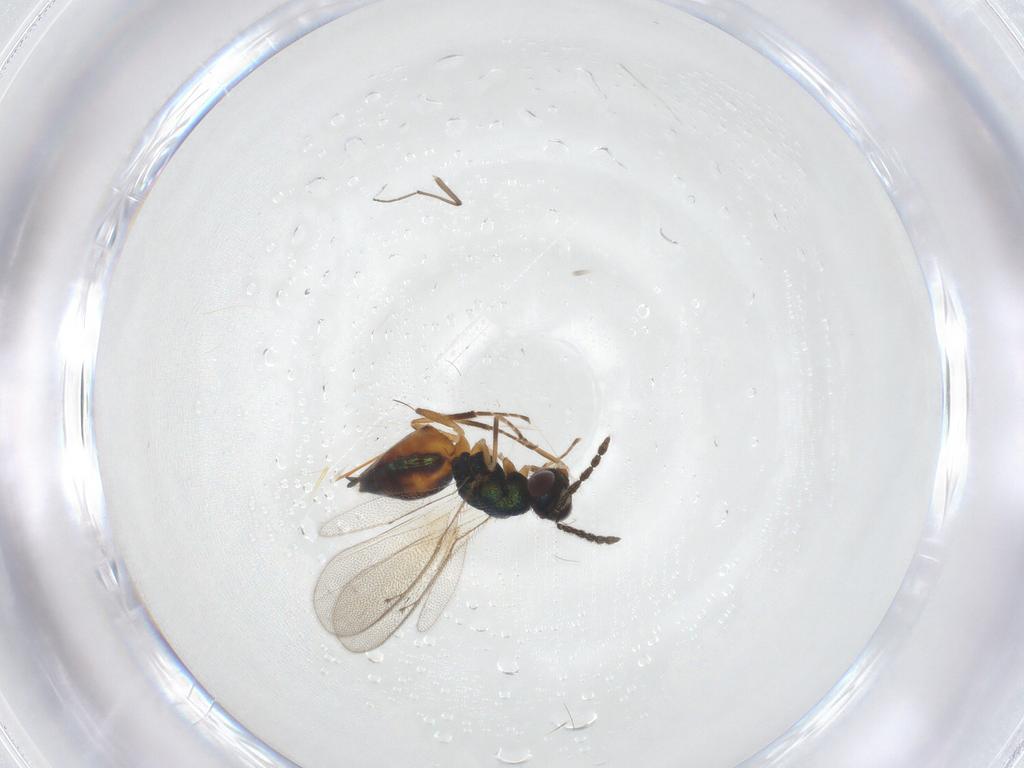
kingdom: Animalia
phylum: Arthropoda
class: Insecta
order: Hymenoptera
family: Eulophidae
